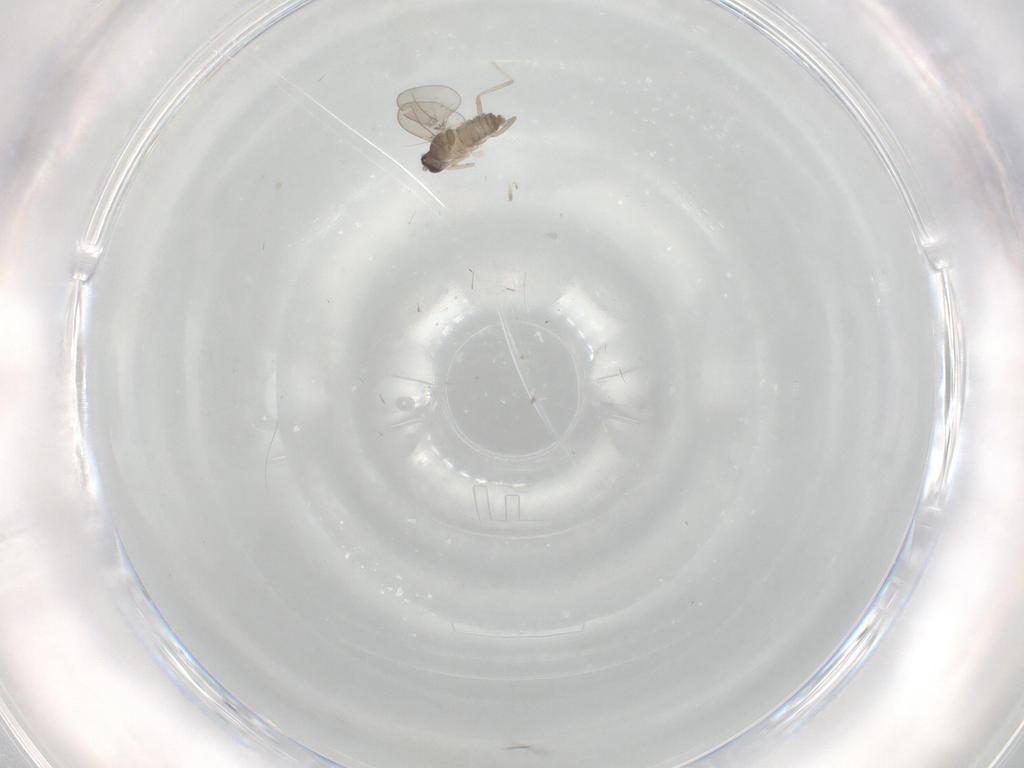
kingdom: Animalia
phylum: Arthropoda
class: Insecta
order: Diptera
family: Cecidomyiidae
